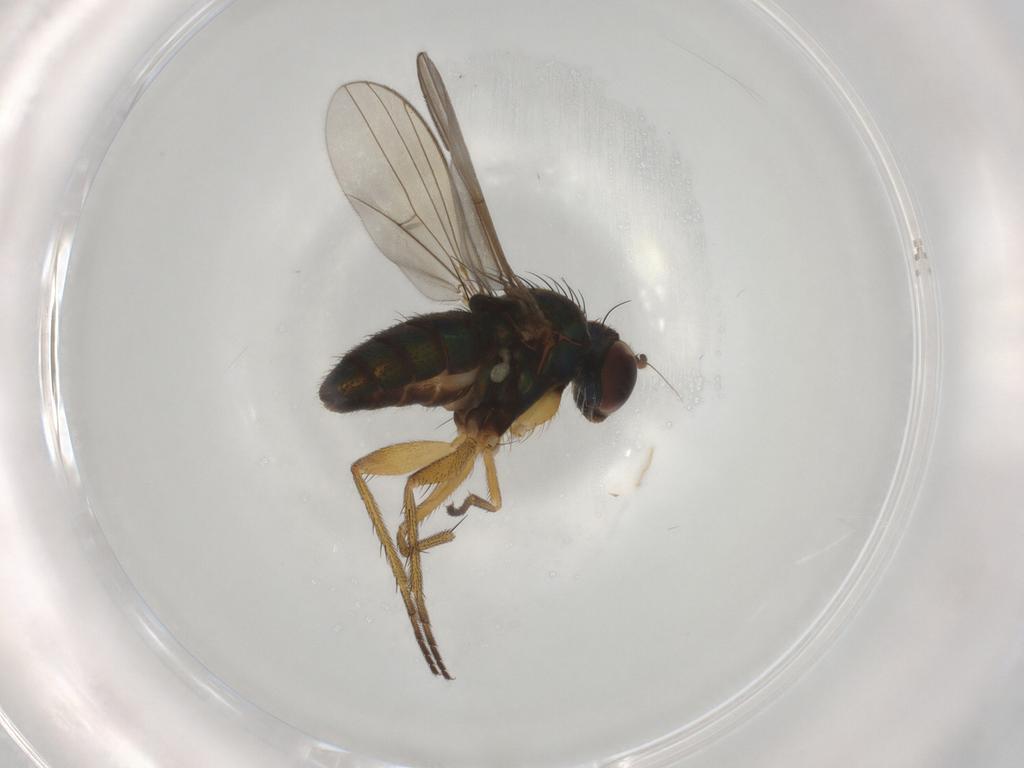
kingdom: Animalia
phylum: Arthropoda
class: Insecta
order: Diptera
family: Dolichopodidae
